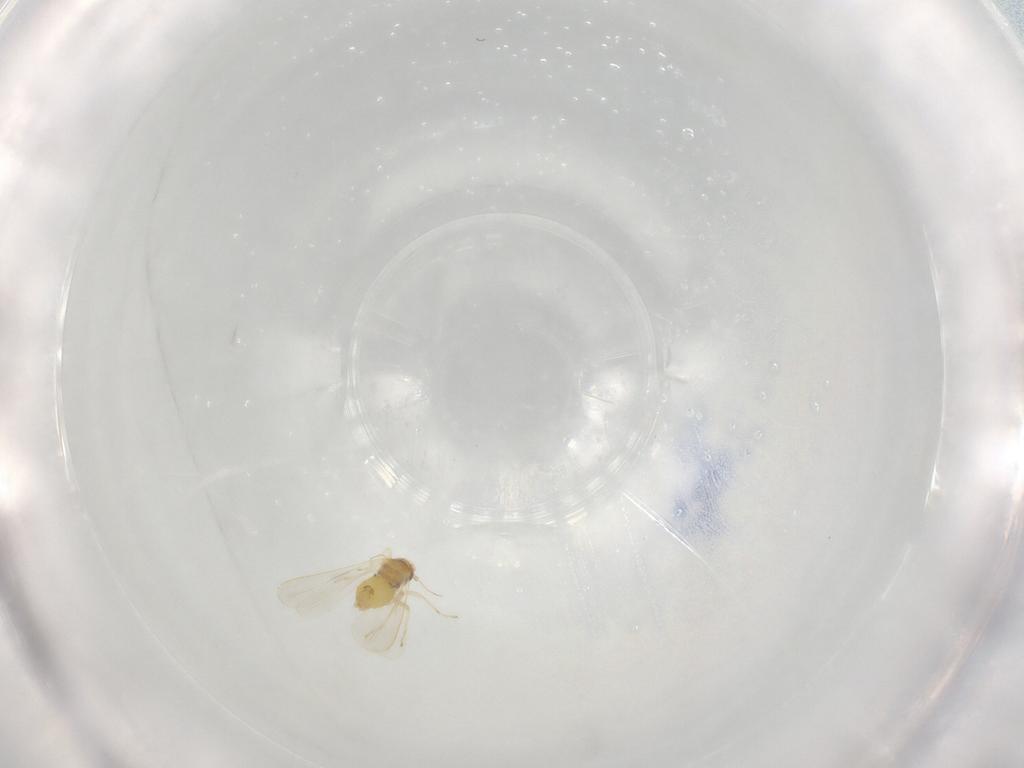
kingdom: Animalia
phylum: Arthropoda
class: Insecta
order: Hemiptera
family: Aleyrodidae
